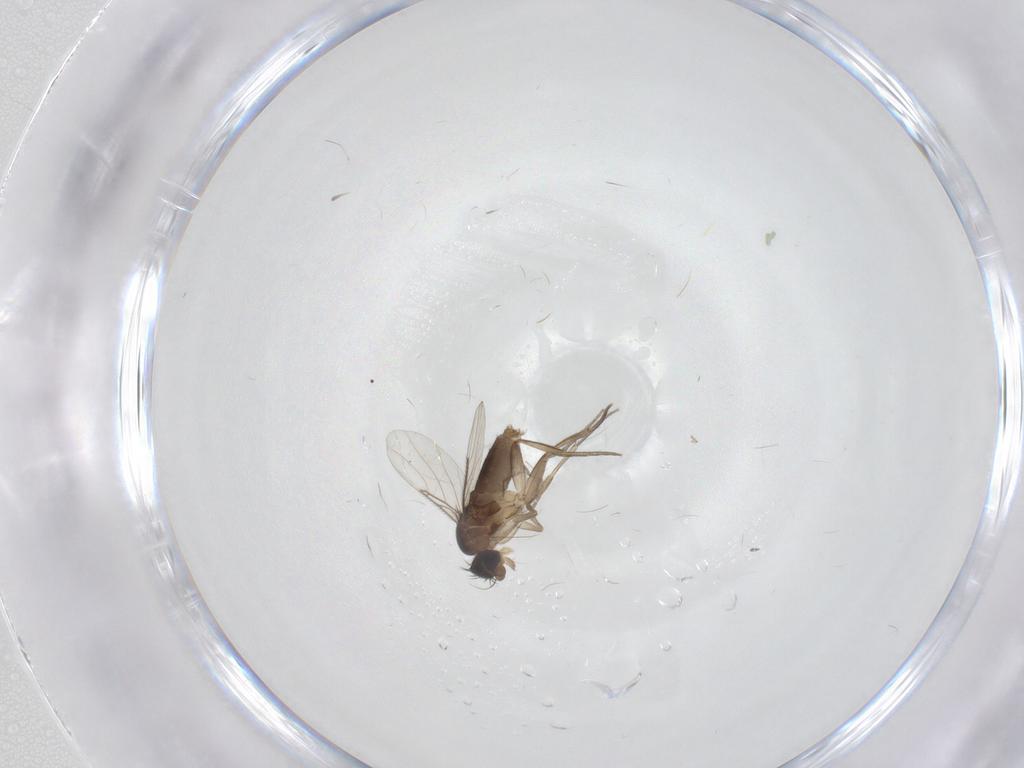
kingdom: Animalia
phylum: Arthropoda
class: Insecta
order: Diptera
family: Phoridae
